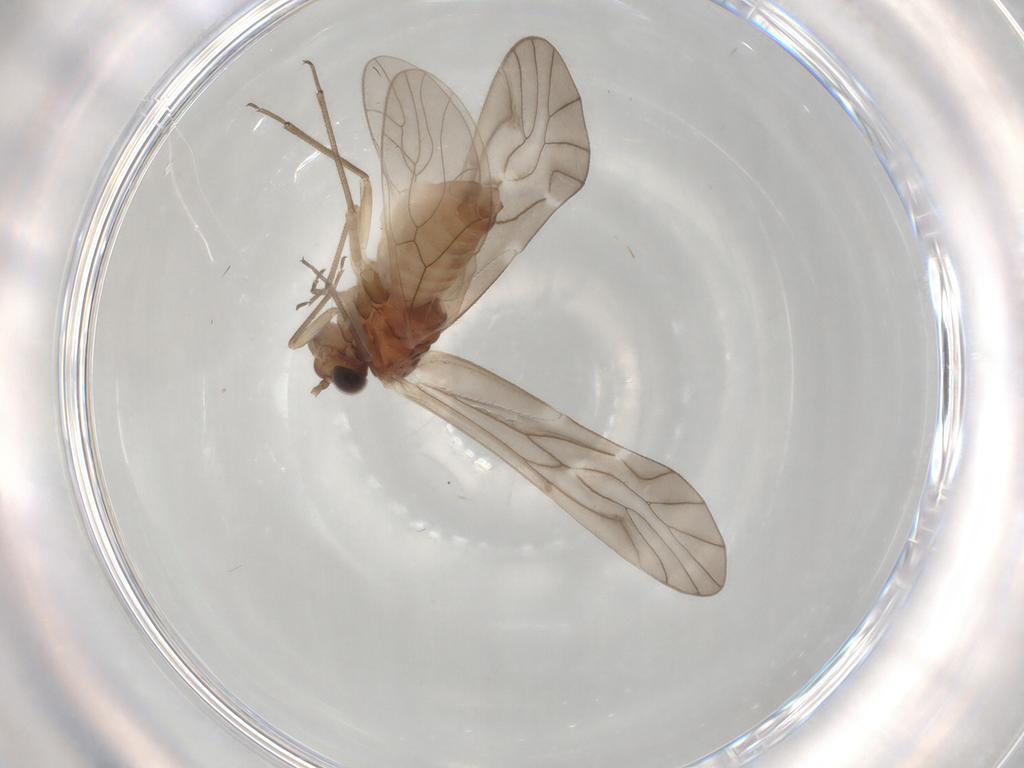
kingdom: Animalia
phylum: Arthropoda
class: Insecta
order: Psocodea
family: Caeciliusidae
